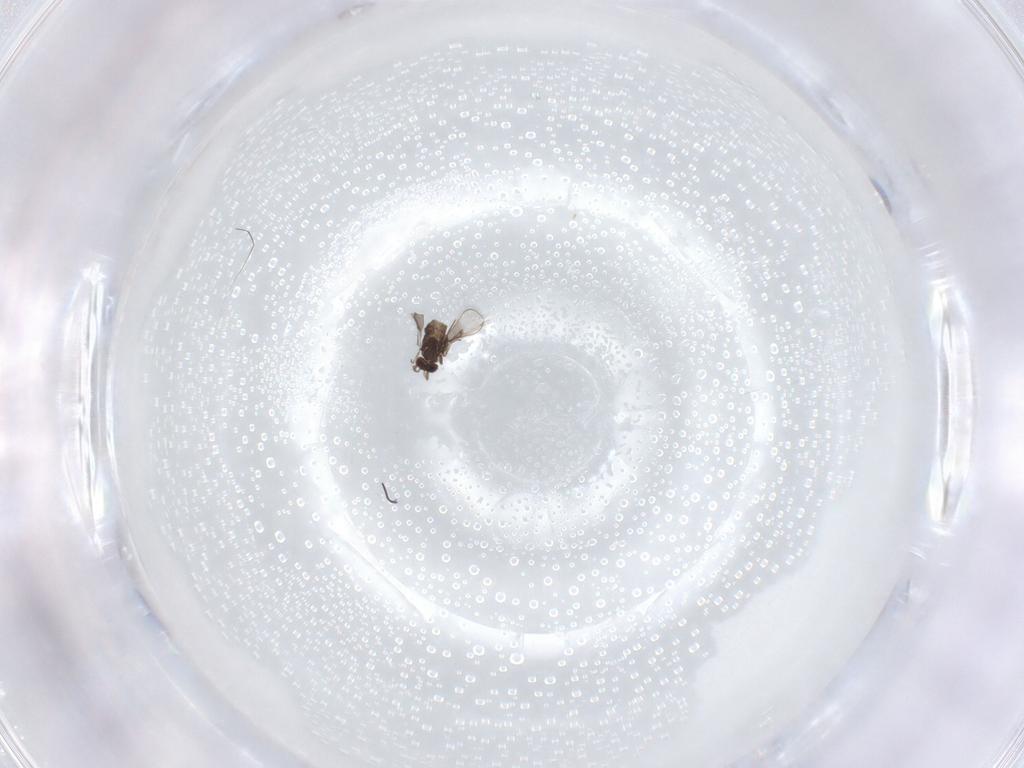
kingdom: Animalia
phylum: Arthropoda
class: Insecta
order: Hymenoptera
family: Trichogrammatidae
